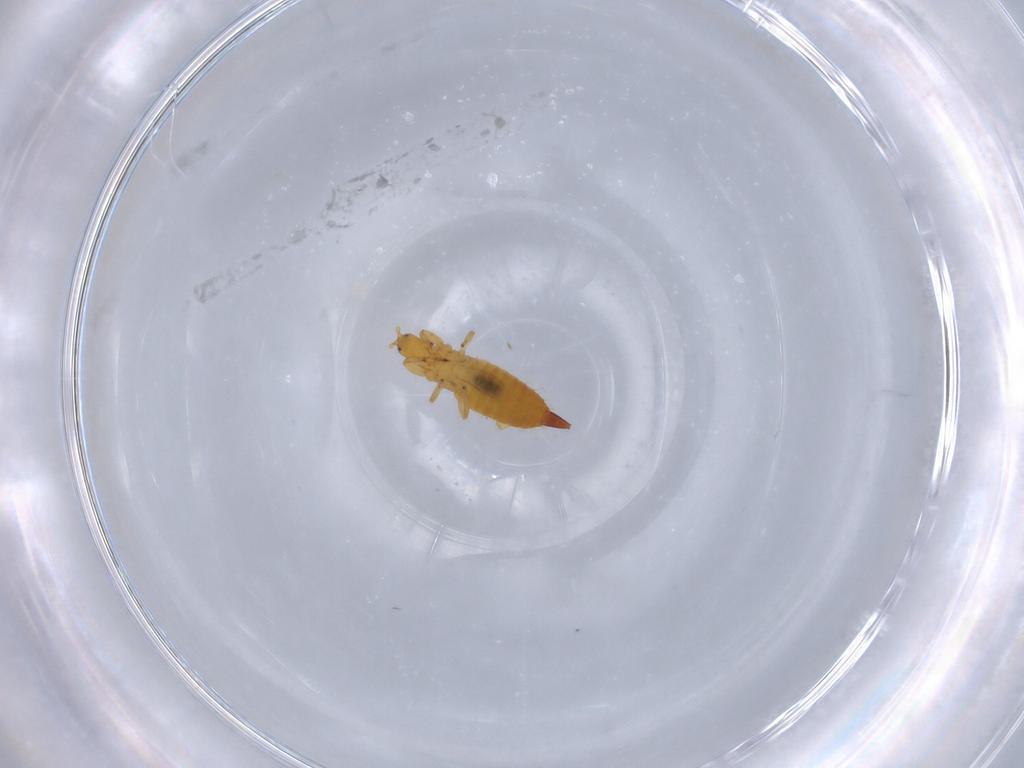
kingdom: Animalia
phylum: Arthropoda
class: Insecta
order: Thysanoptera
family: Phlaeothripidae
